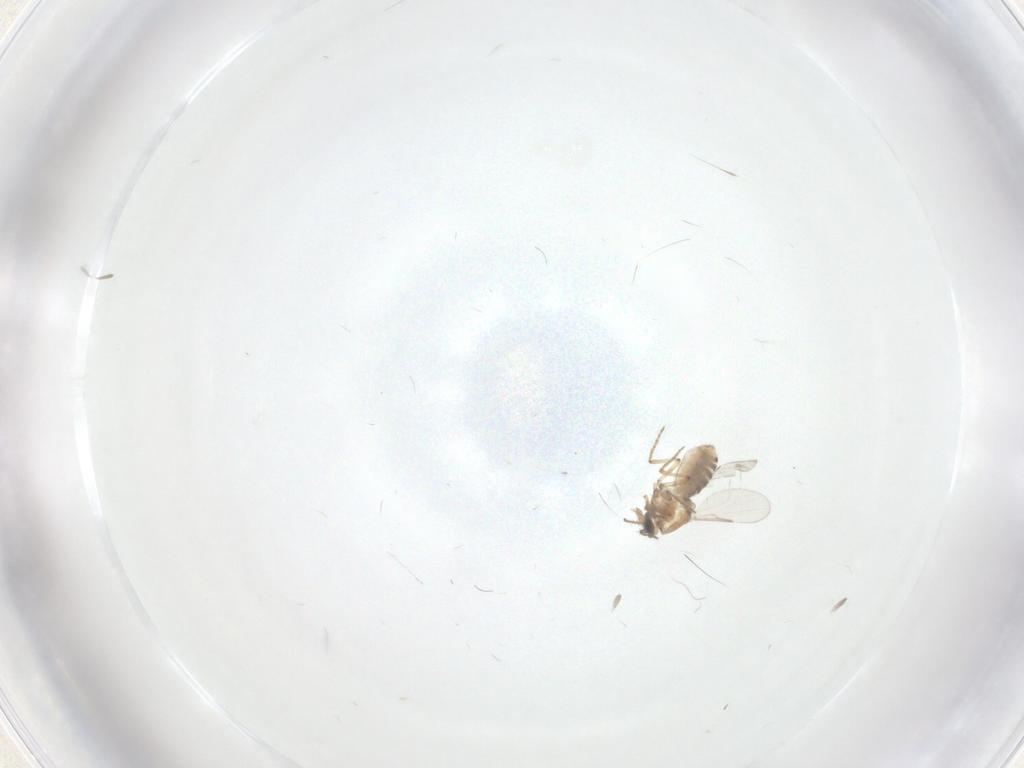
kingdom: Animalia
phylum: Arthropoda
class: Insecta
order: Diptera
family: Ceratopogonidae
